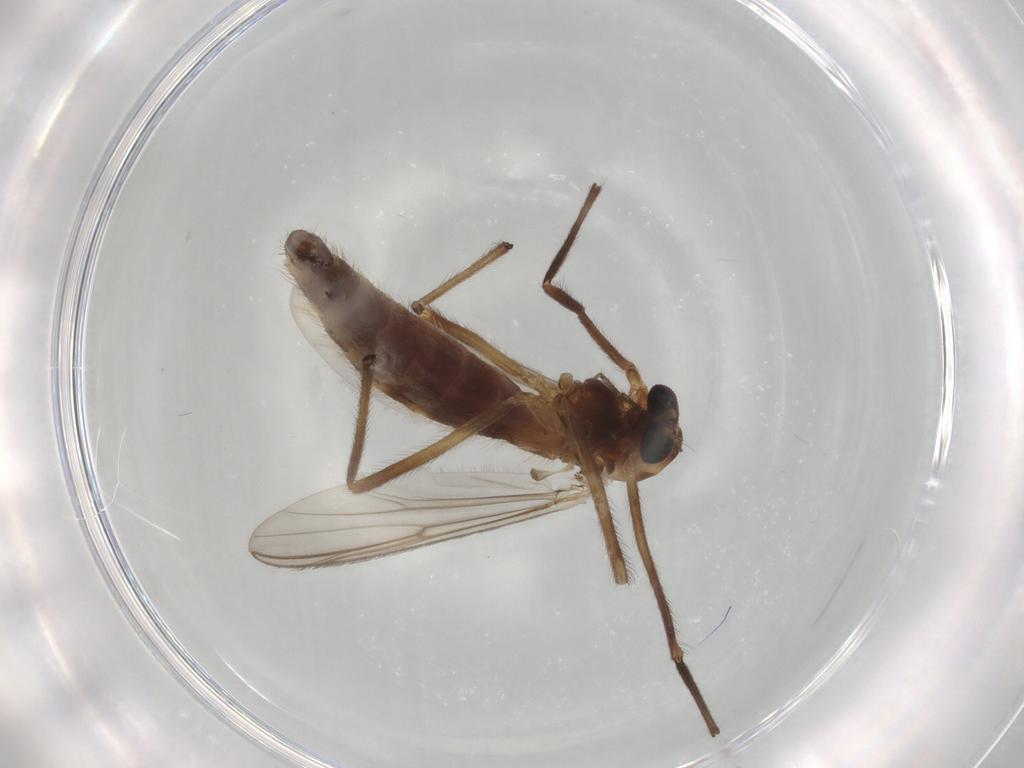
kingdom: Animalia
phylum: Arthropoda
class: Insecta
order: Diptera
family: Chironomidae
